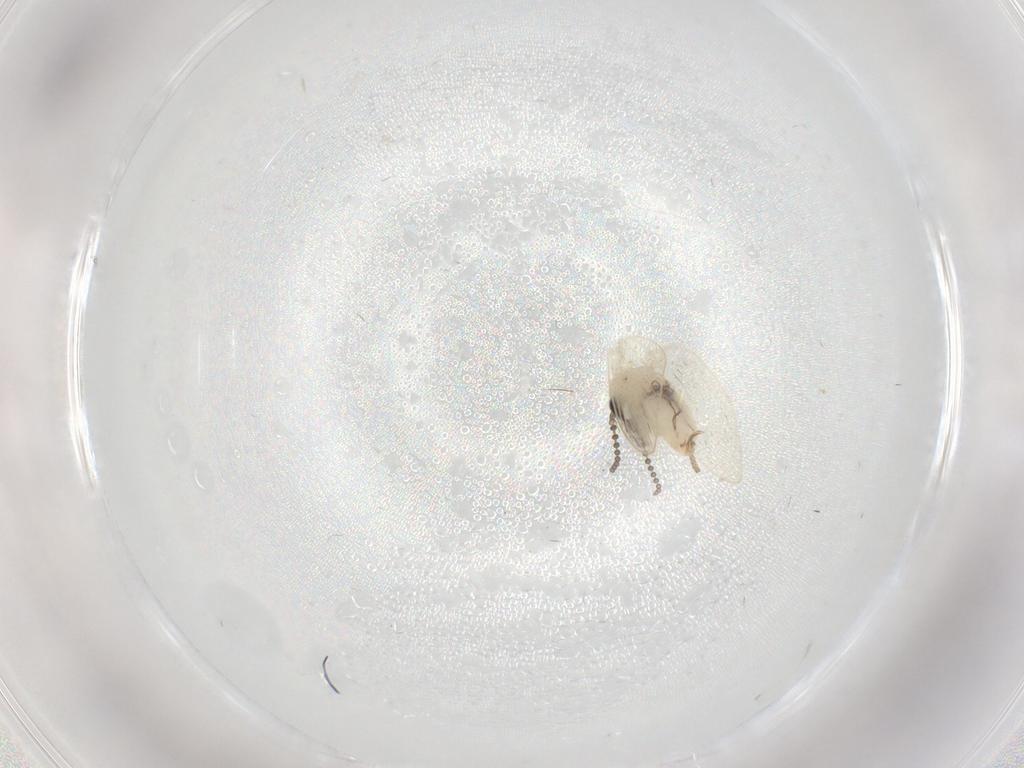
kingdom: Animalia
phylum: Arthropoda
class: Insecta
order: Diptera
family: Psychodidae
